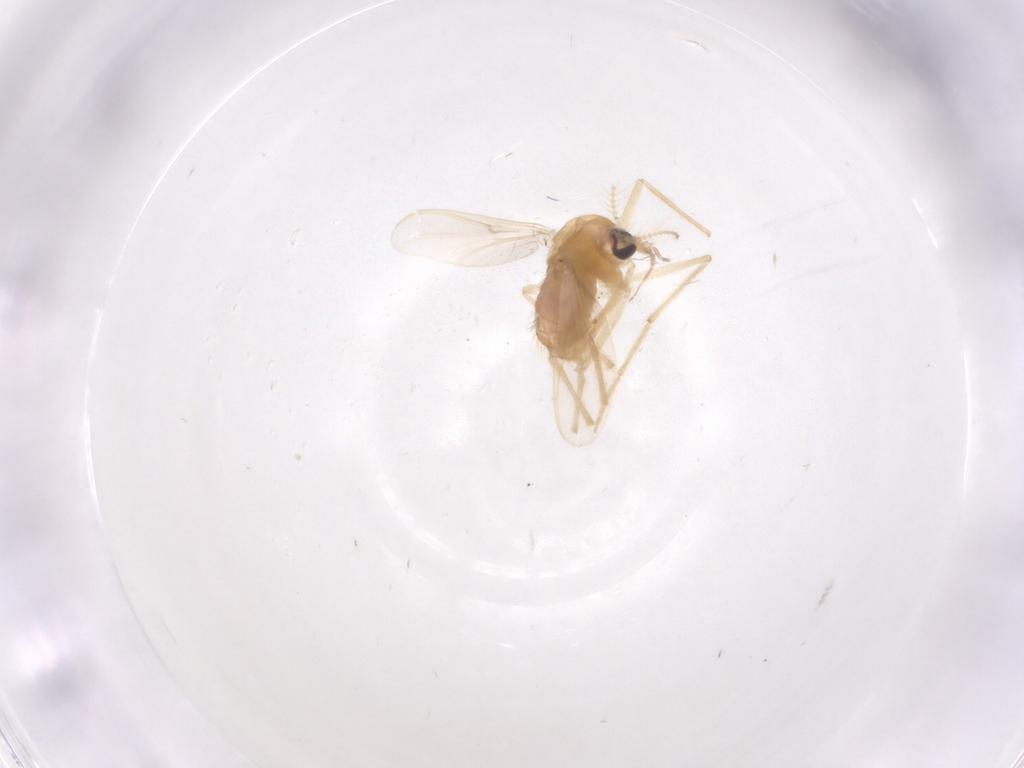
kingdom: Animalia
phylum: Arthropoda
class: Insecta
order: Diptera
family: Chironomidae
